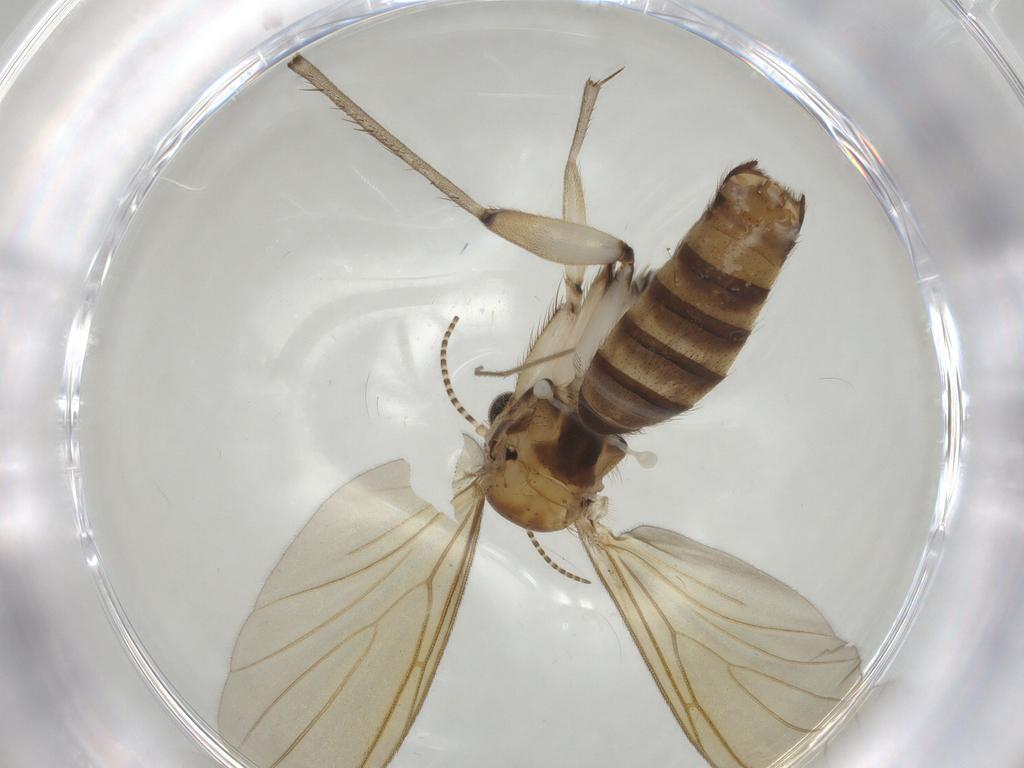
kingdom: Animalia
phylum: Arthropoda
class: Insecta
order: Diptera
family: Mycetophilidae
